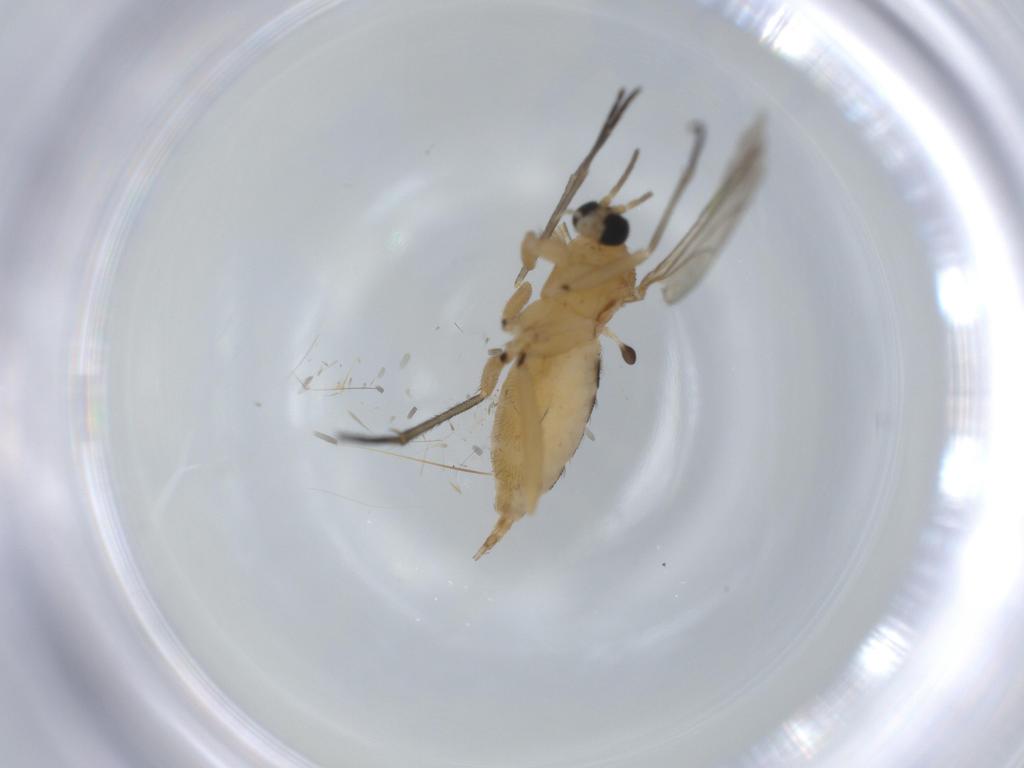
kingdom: Animalia
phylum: Arthropoda
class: Insecta
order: Diptera
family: Sciaridae
